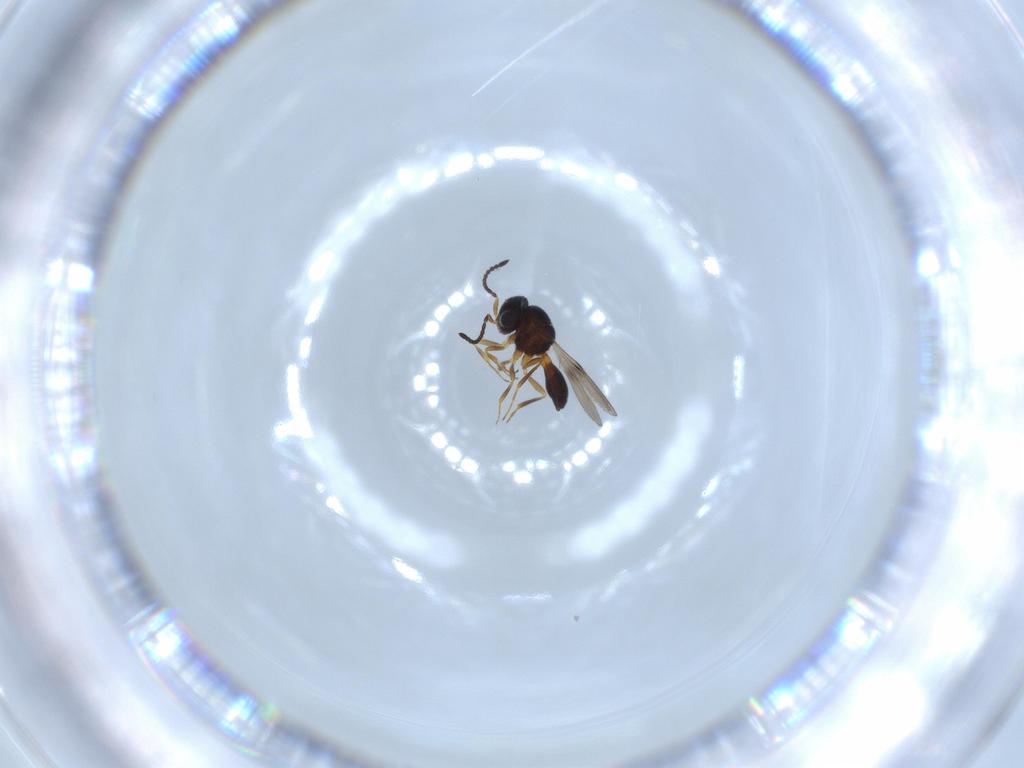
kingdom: Animalia
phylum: Arthropoda
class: Arachnida
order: Araneae
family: Pholcidae
